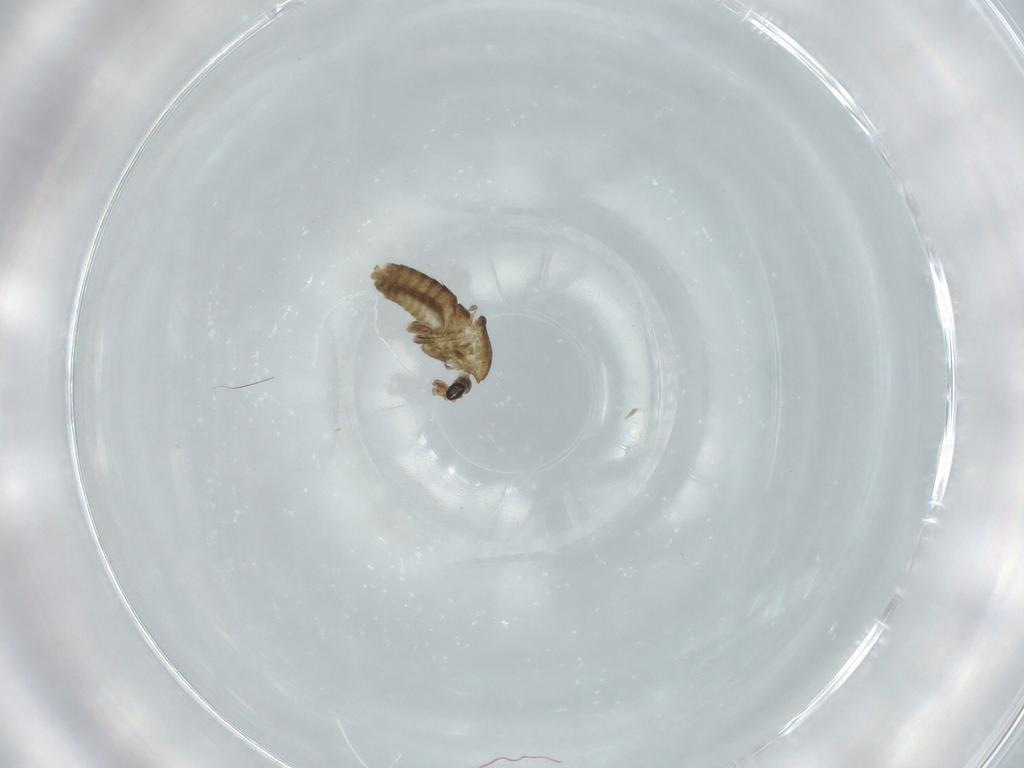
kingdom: Animalia
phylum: Arthropoda
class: Insecta
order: Diptera
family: Chironomidae
